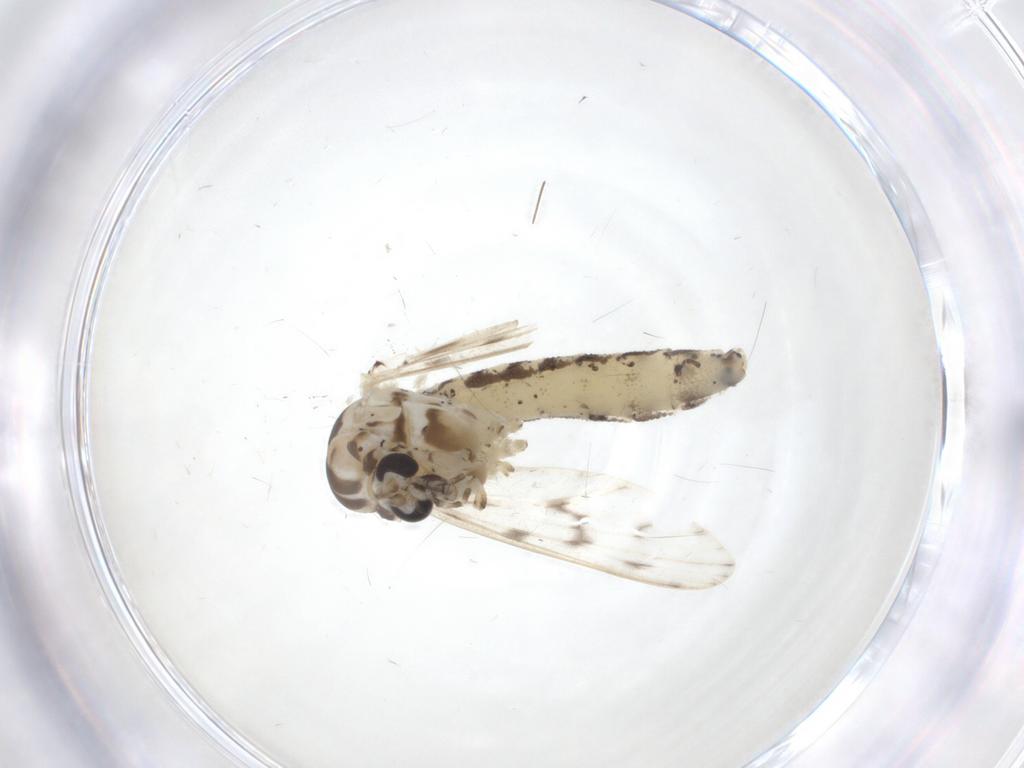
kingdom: Animalia
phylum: Arthropoda
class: Insecta
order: Diptera
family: Chaoboridae
